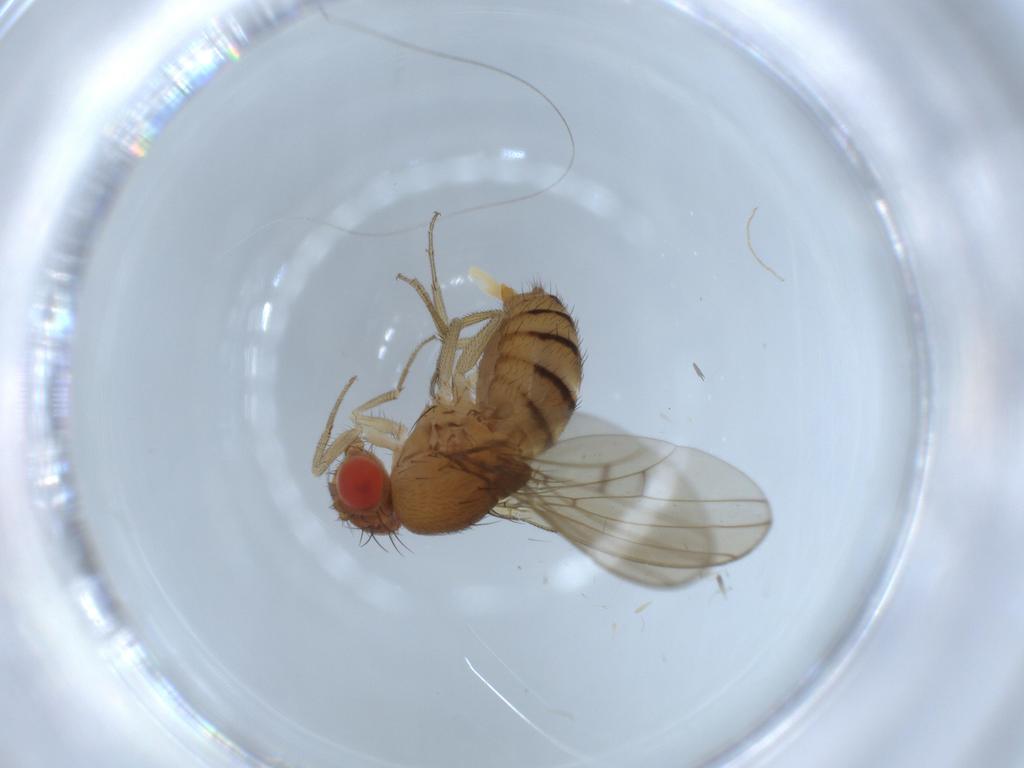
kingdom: Animalia
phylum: Arthropoda
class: Insecta
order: Diptera
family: Drosophilidae
